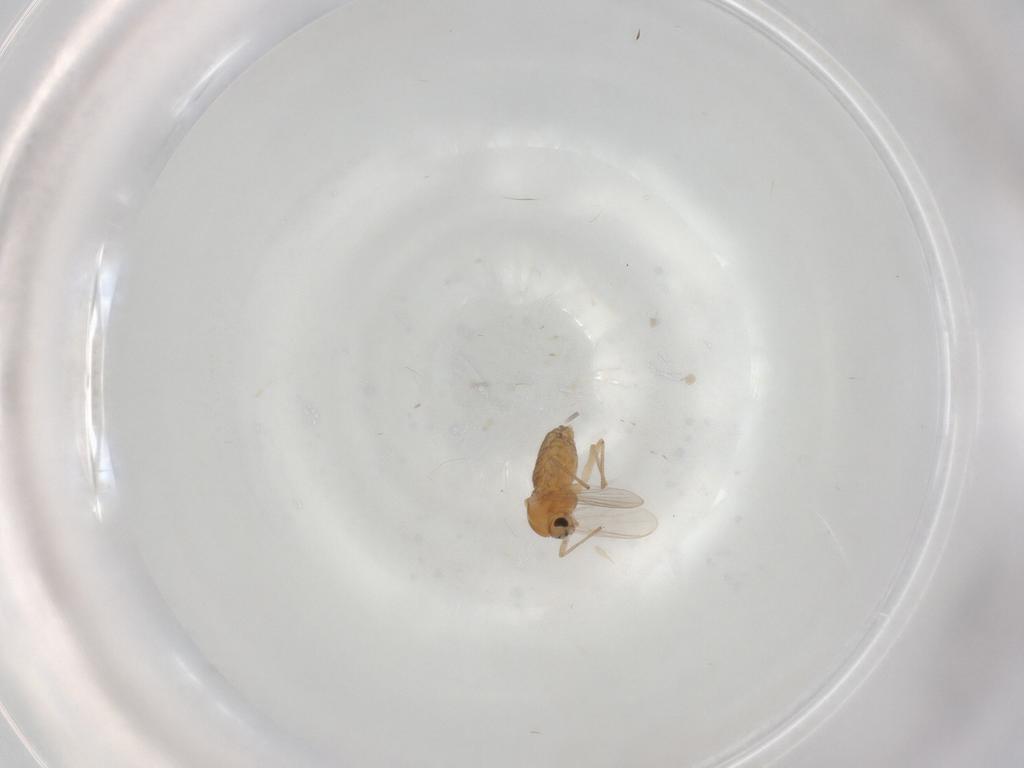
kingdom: Animalia
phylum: Arthropoda
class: Insecta
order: Diptera
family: Chironomidae
